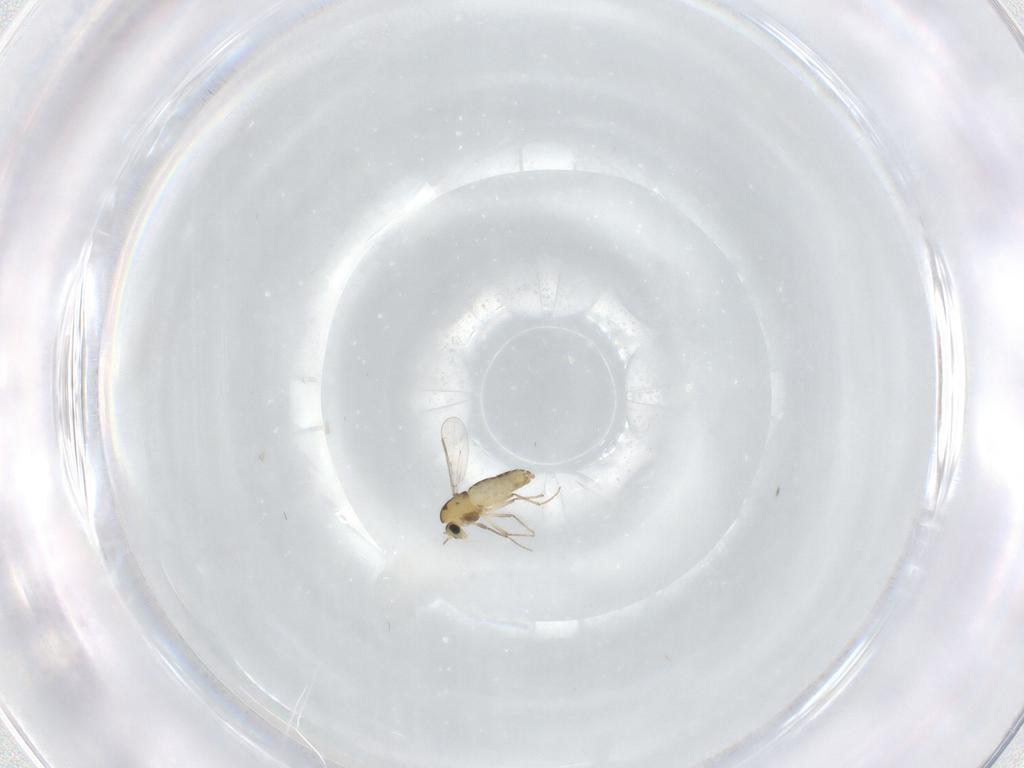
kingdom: Animalia
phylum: Arthropoda
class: Insecta
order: Diptera
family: Chironomidae
